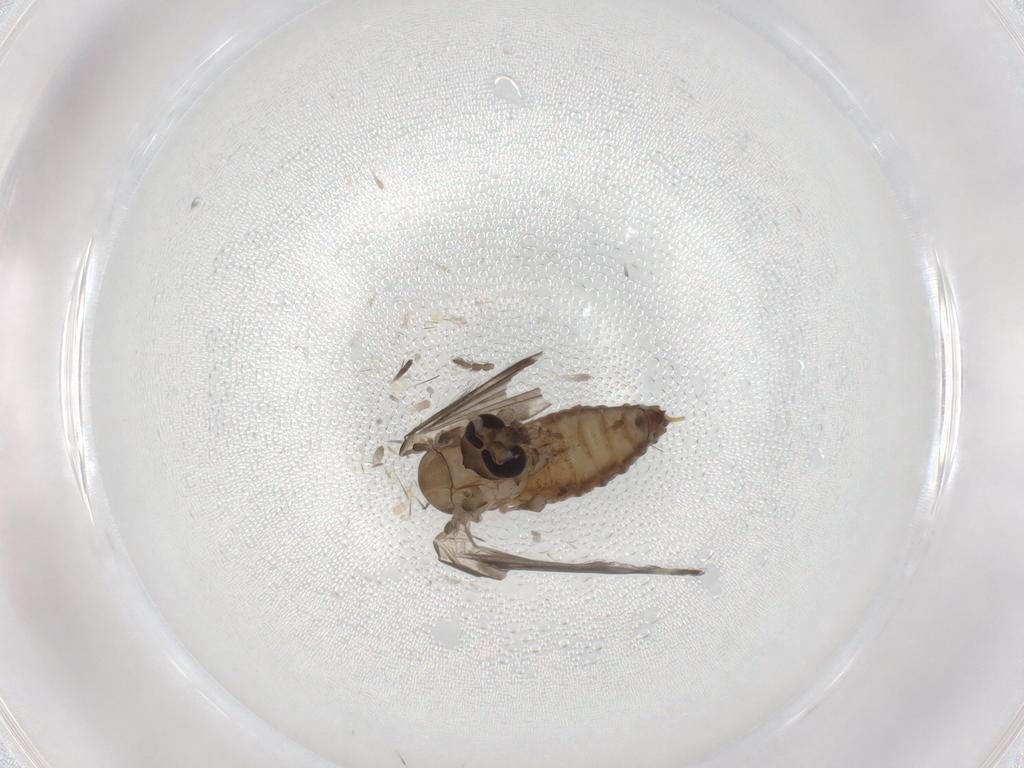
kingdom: Animalia
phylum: Arthropoda
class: Insecta
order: Diptera
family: Psychodidae
